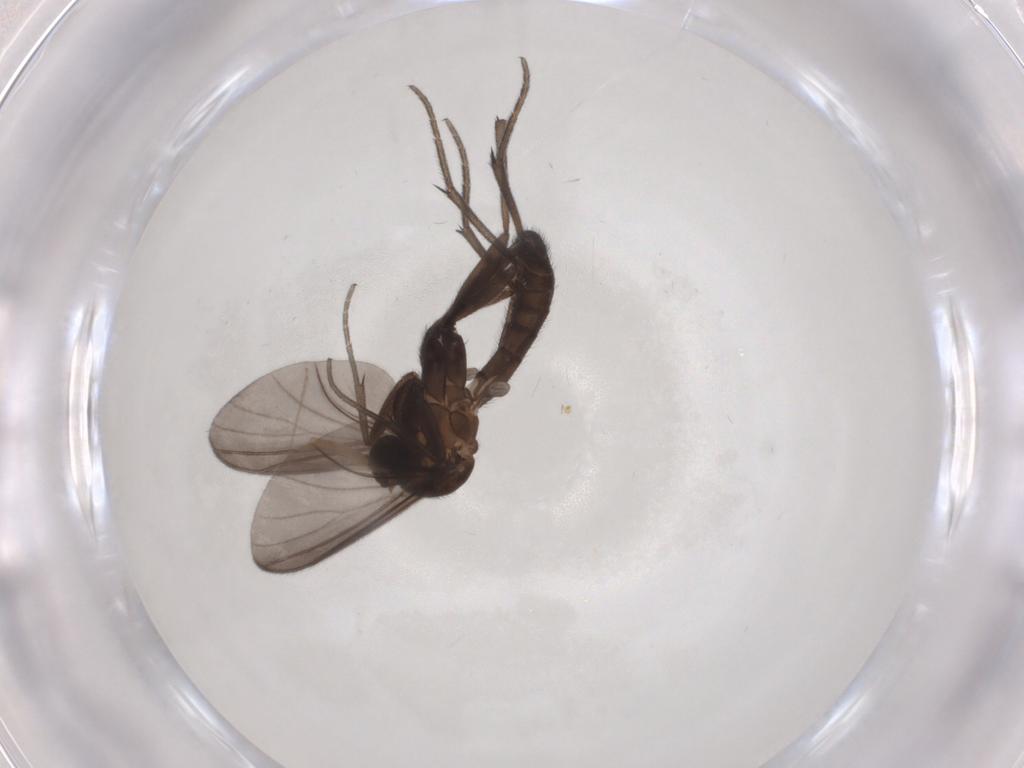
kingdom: Animalia
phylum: Arthropoda
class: Insecta
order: Diptera
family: Mycetophilidae
